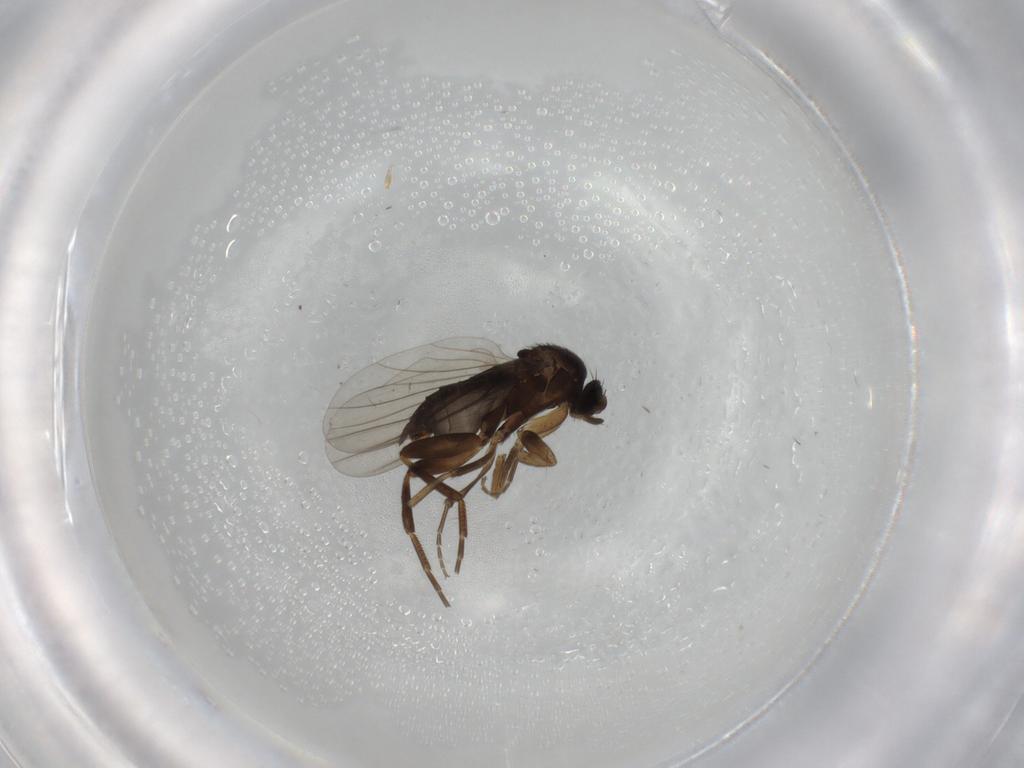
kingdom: Animalia
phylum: Arthropoda
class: Insecta
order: Diptera
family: Phoridae
